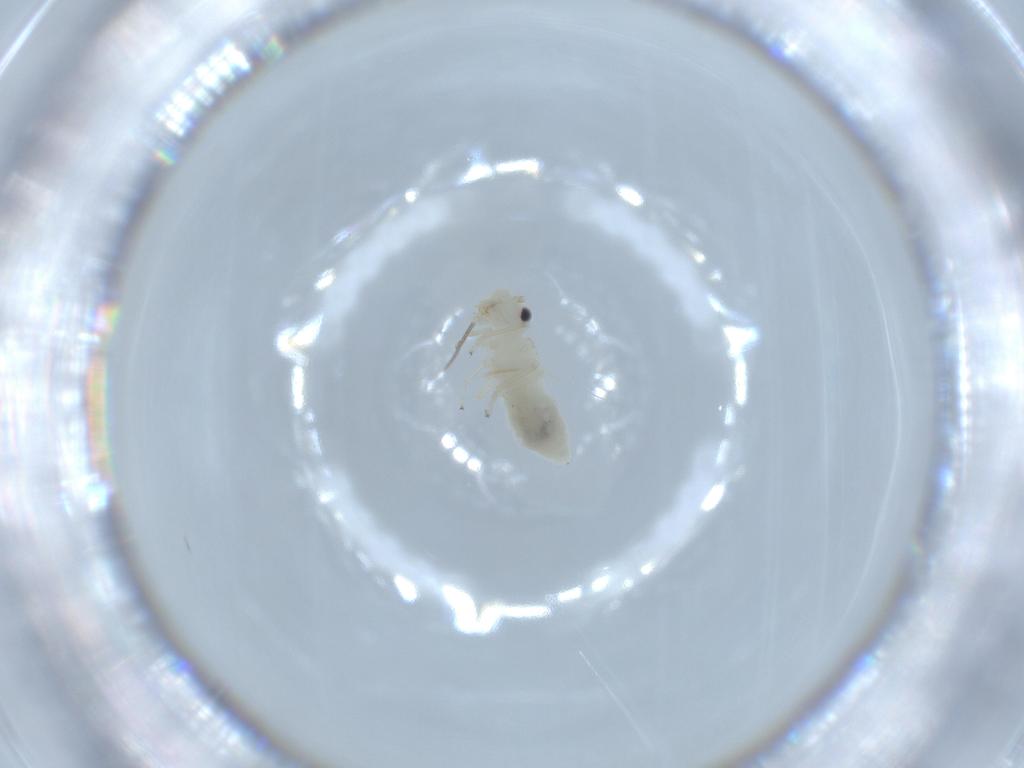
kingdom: Animalia
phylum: Arthropoda
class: Insecta
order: Psocodea
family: Caeciliusidae
